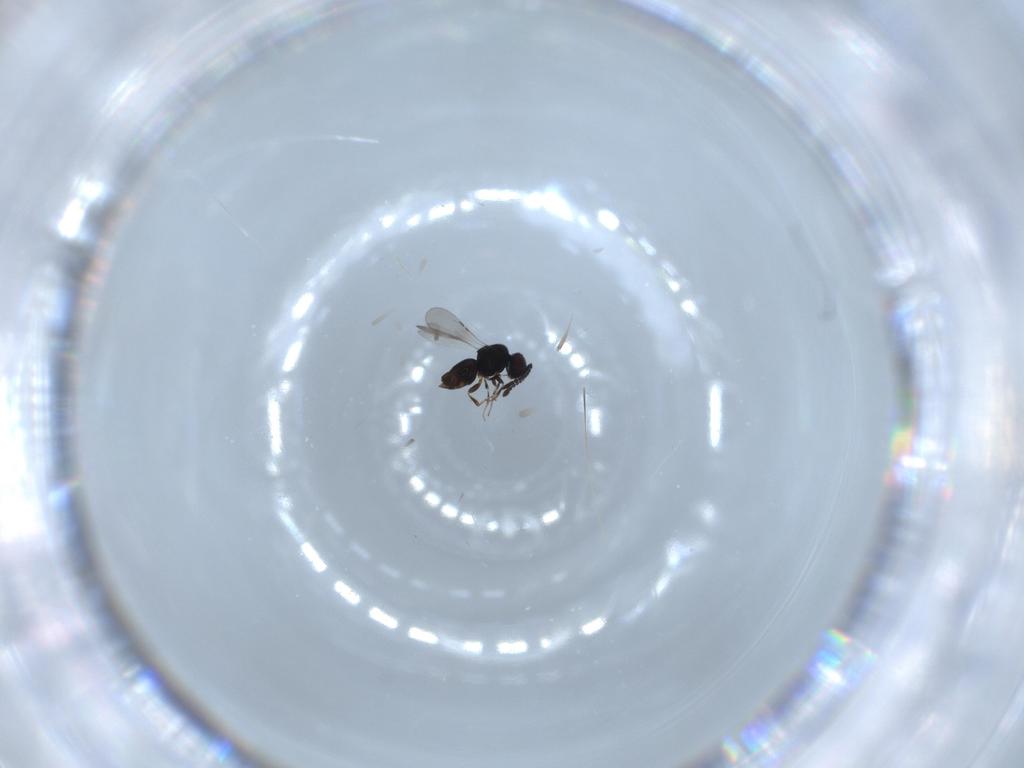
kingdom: Animalia
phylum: Arthropoda
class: Insecta
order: Hymenoptera
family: Ceraphronidae
